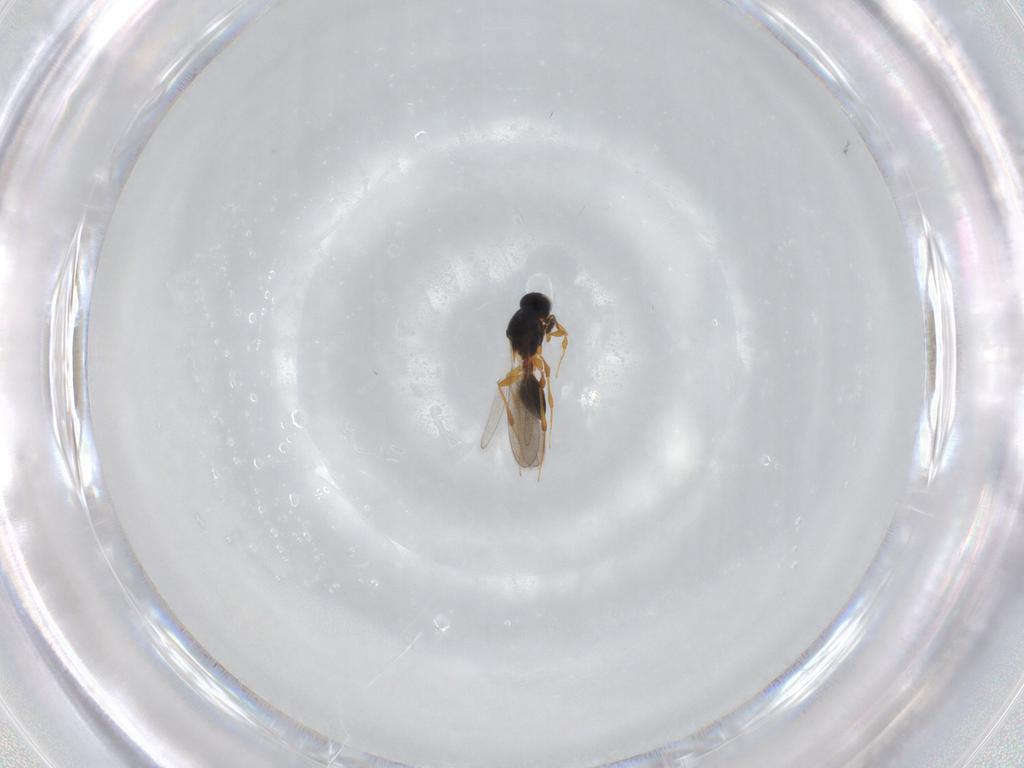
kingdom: Animalia
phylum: Arthropoda
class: Insecta
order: Hymenoptera
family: Platygastridae
